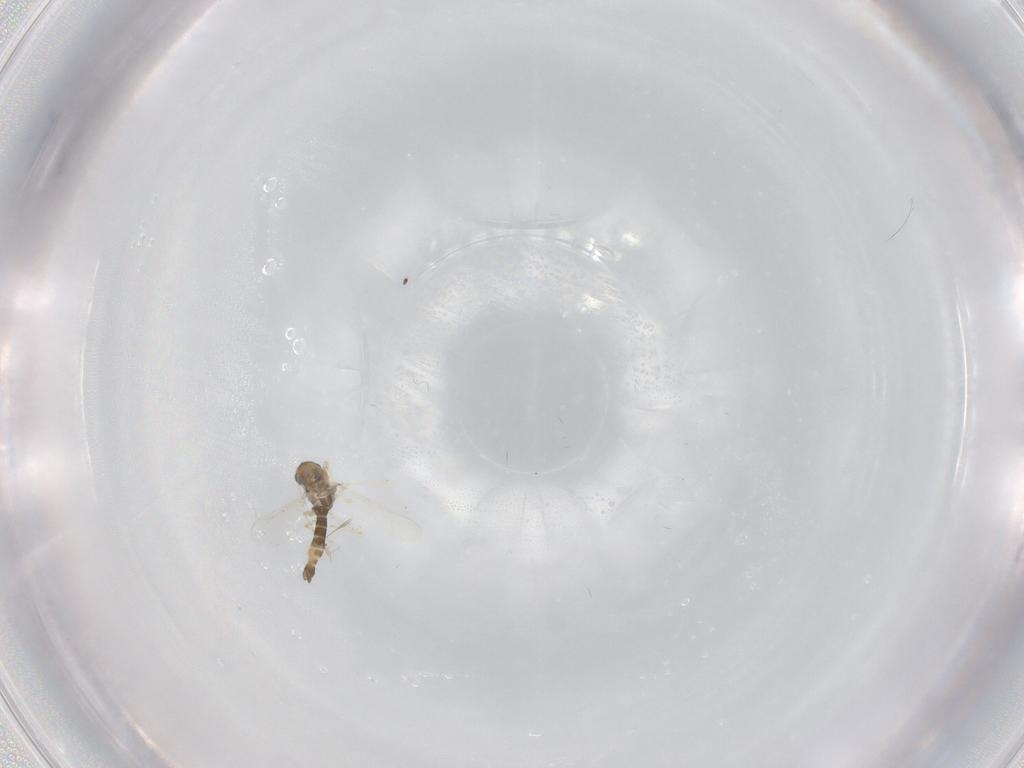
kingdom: Animalia
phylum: Arthropoda
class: Insecta
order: Diptera
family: Chironomidae
